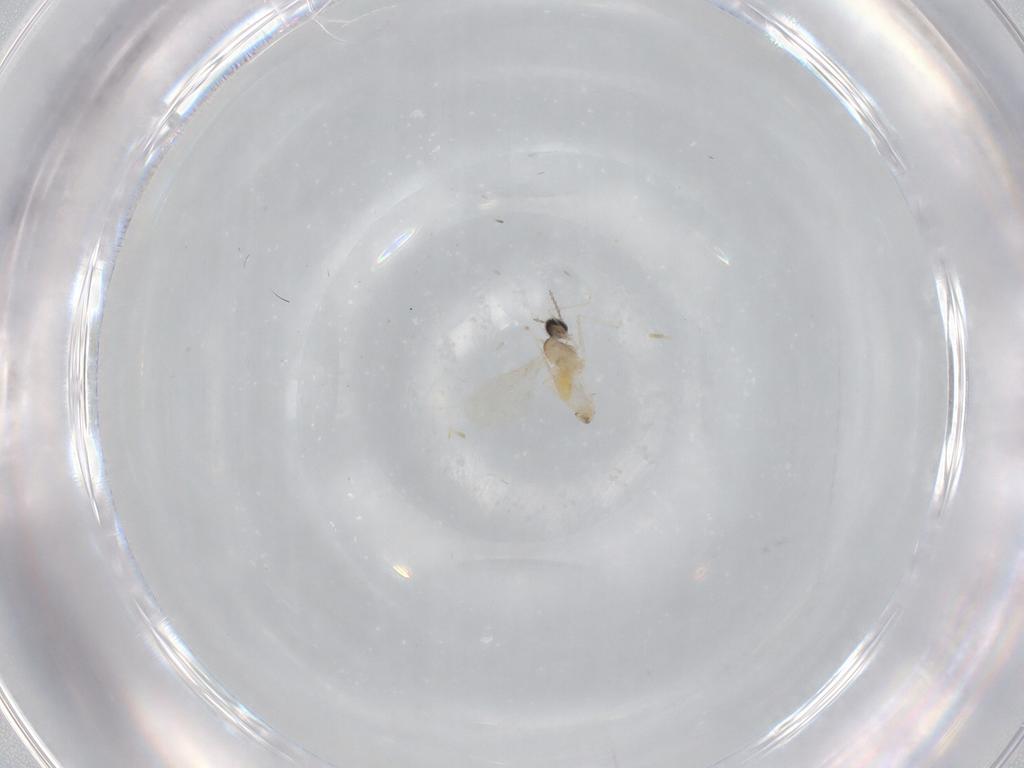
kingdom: Animalia
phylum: Arthropoda
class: Insecta
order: Diptera
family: Cecidomyiidae
